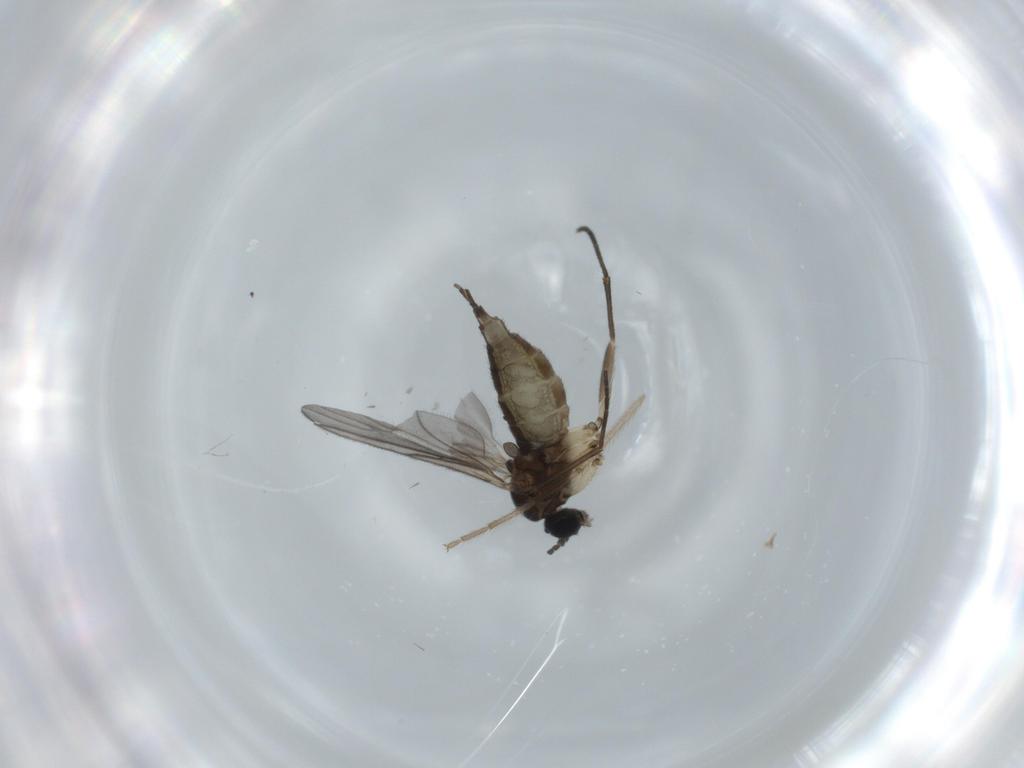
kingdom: Animalia
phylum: Arthropoda
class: Insecta
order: Diptera
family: Sciaridae
